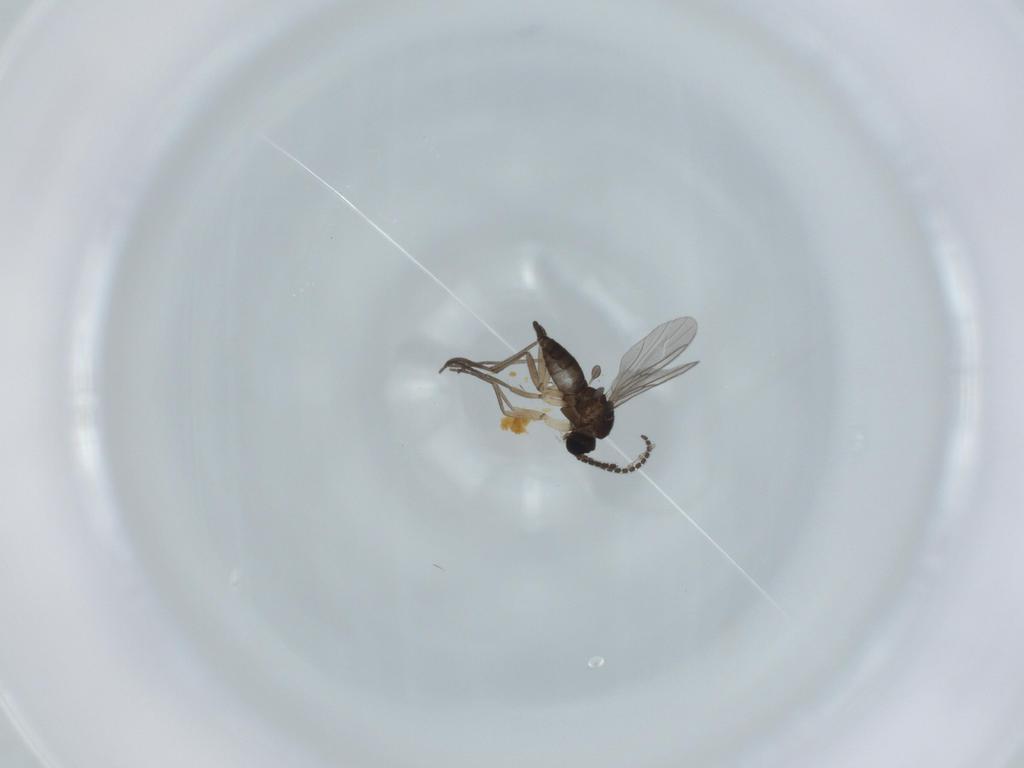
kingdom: Animalia
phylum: Arthropoda
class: Insecta
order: Diptera
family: Sciaridae
